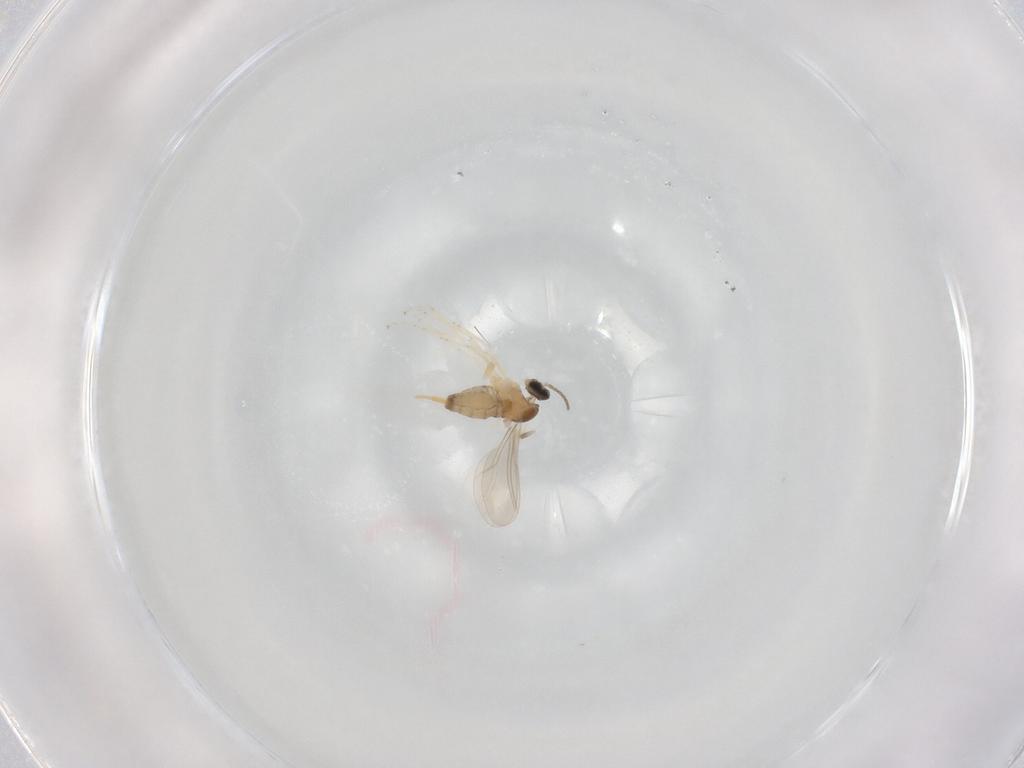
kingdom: Animalia
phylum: Arthropoda
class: Insecta
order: Diptera
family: Cecidomyiidae
